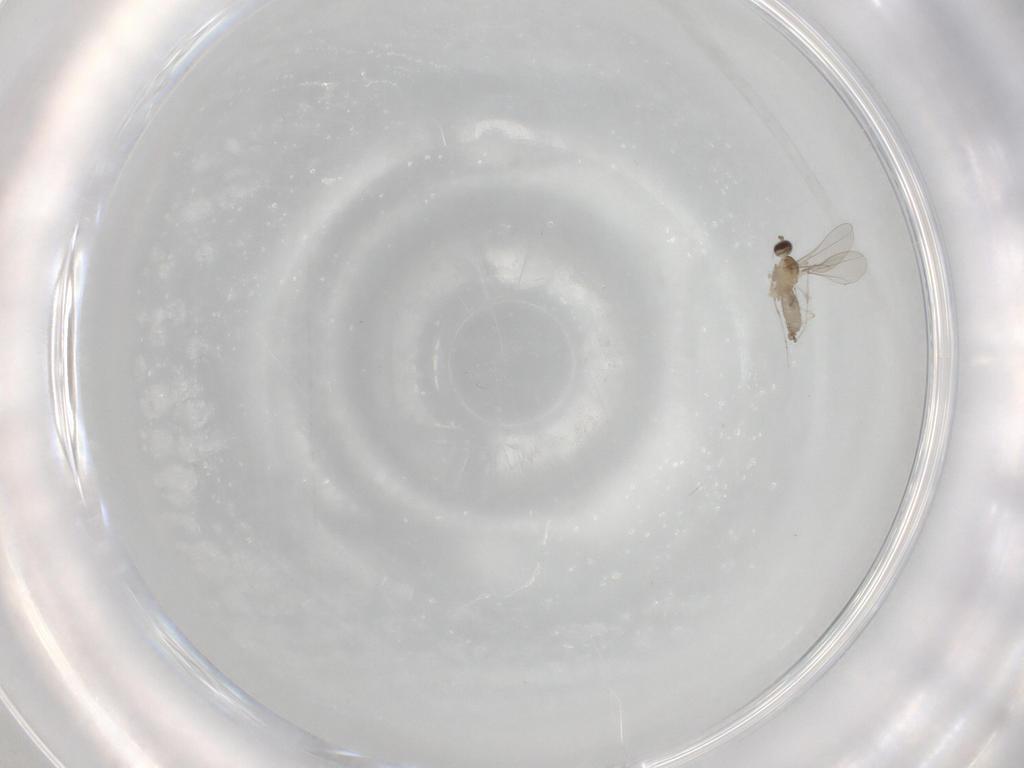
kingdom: Animalia
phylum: Arthropoda
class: Insecta
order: Diptera
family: Cecidomyiidae
